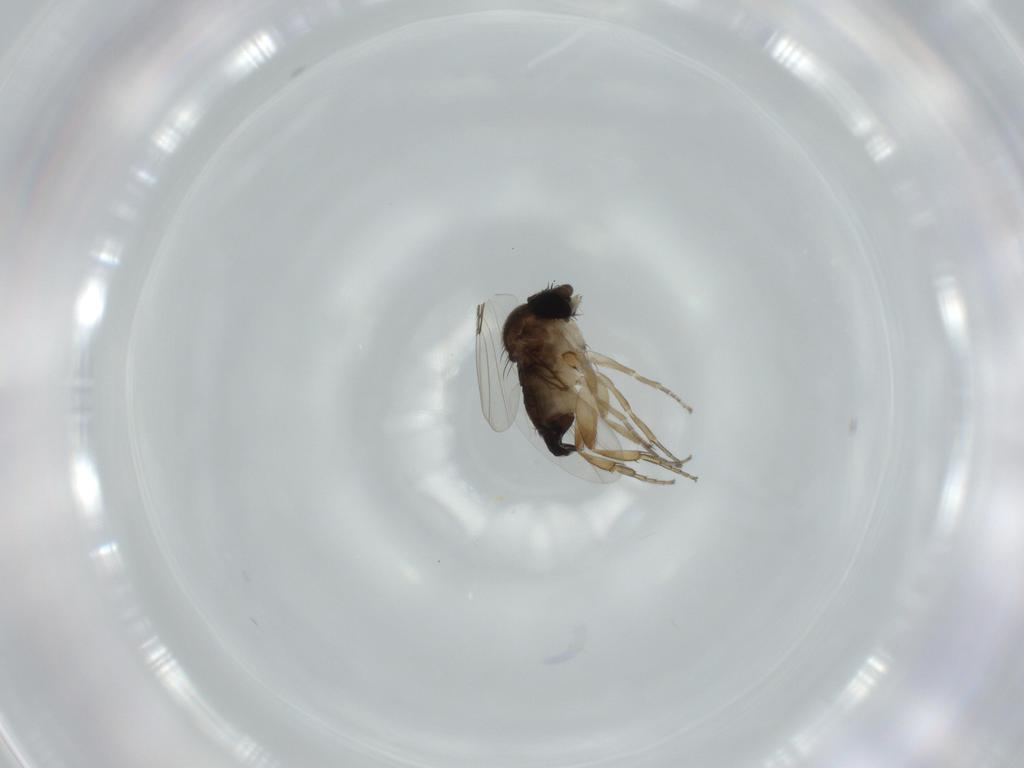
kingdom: Animalia
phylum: Arthropoda
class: Insecta
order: Diptera
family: Phoridae
